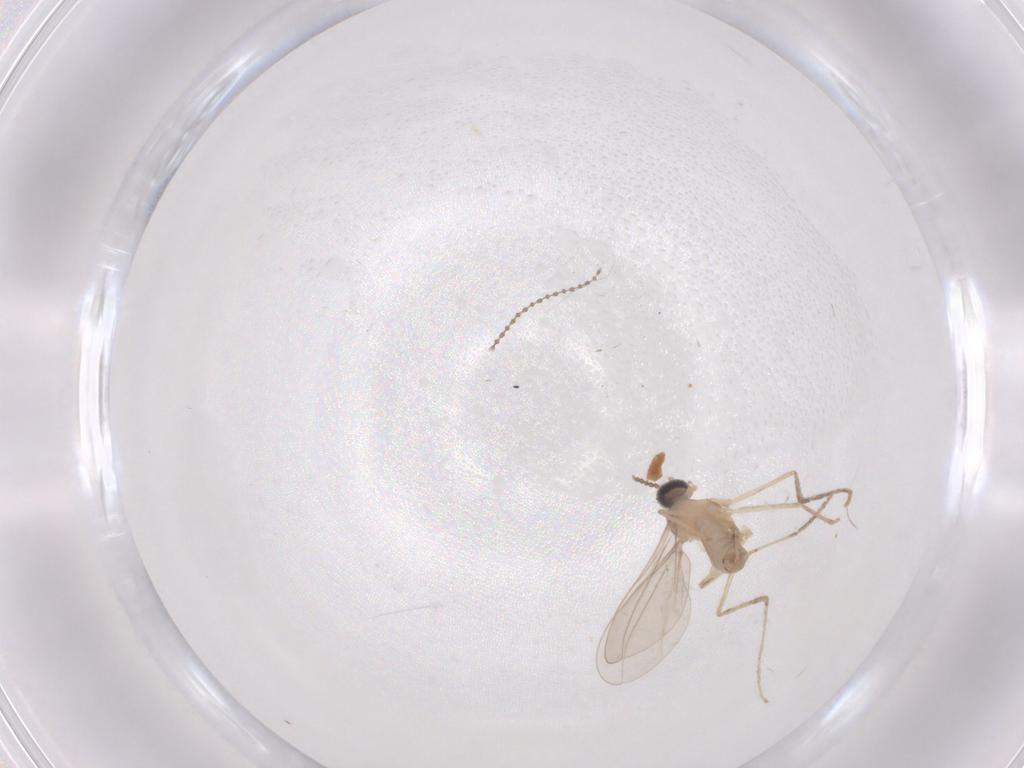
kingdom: Animalia
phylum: Arthropoda
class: Insecta
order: Diptera
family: Cecidomyiidae
